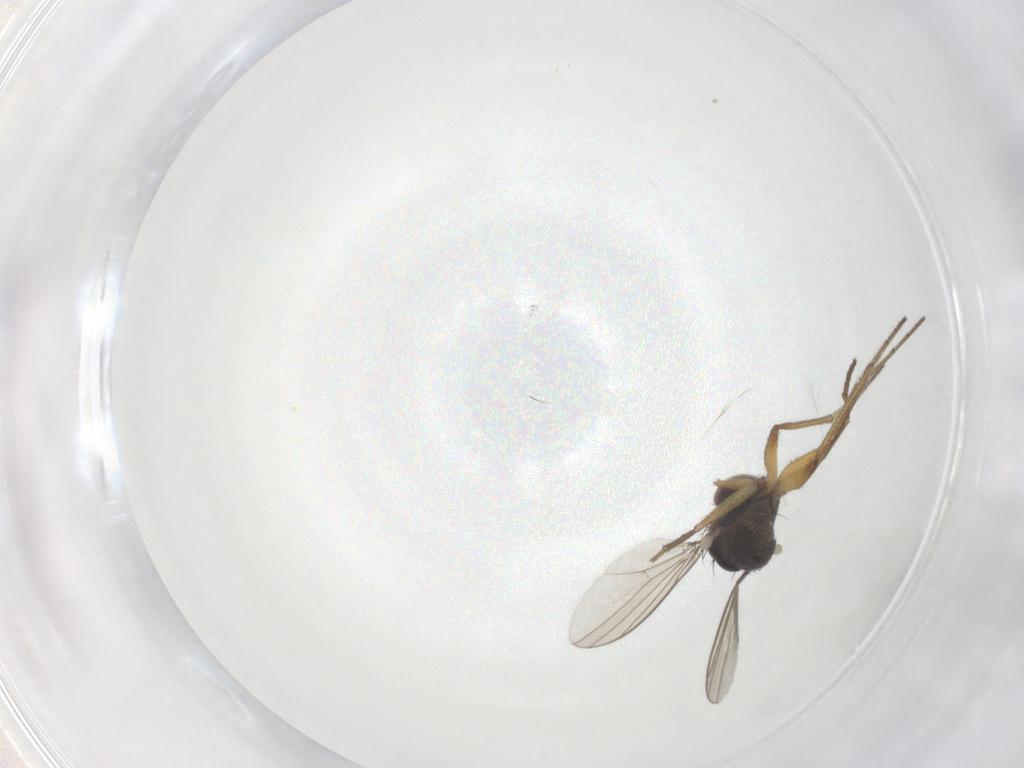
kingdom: Animalia
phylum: Arthropoda
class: Insecta
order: Diptera
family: Dolichopodidae
